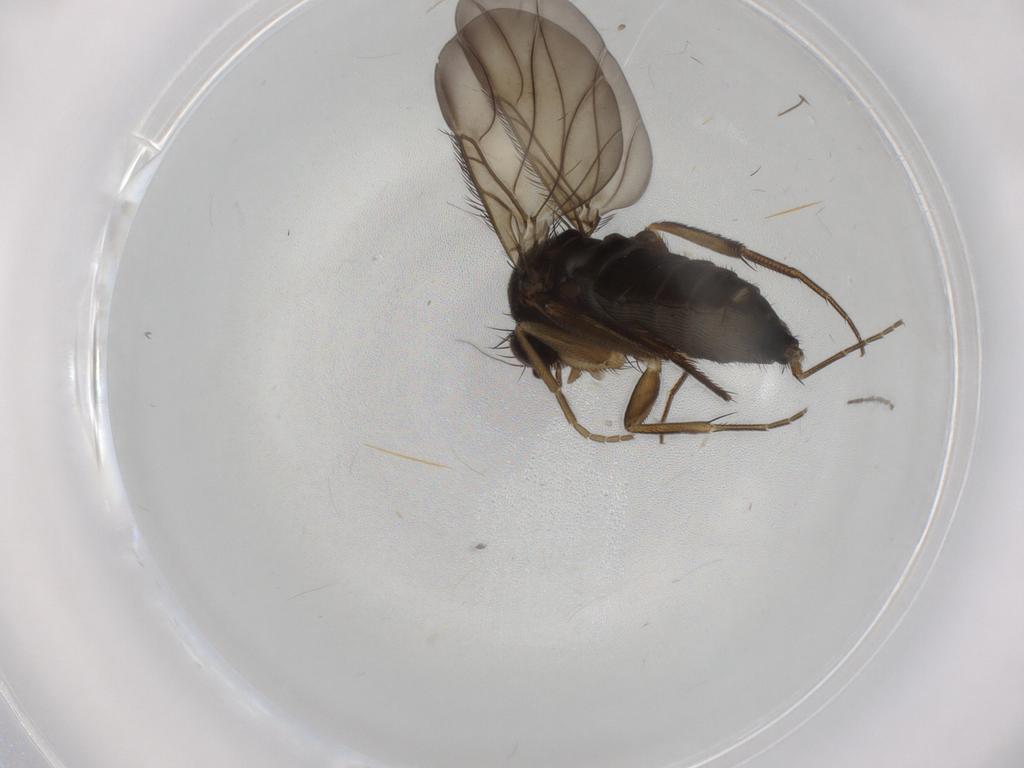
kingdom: Animalia
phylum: Arthropoda
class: Insecta
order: Diptera
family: Phoridae
